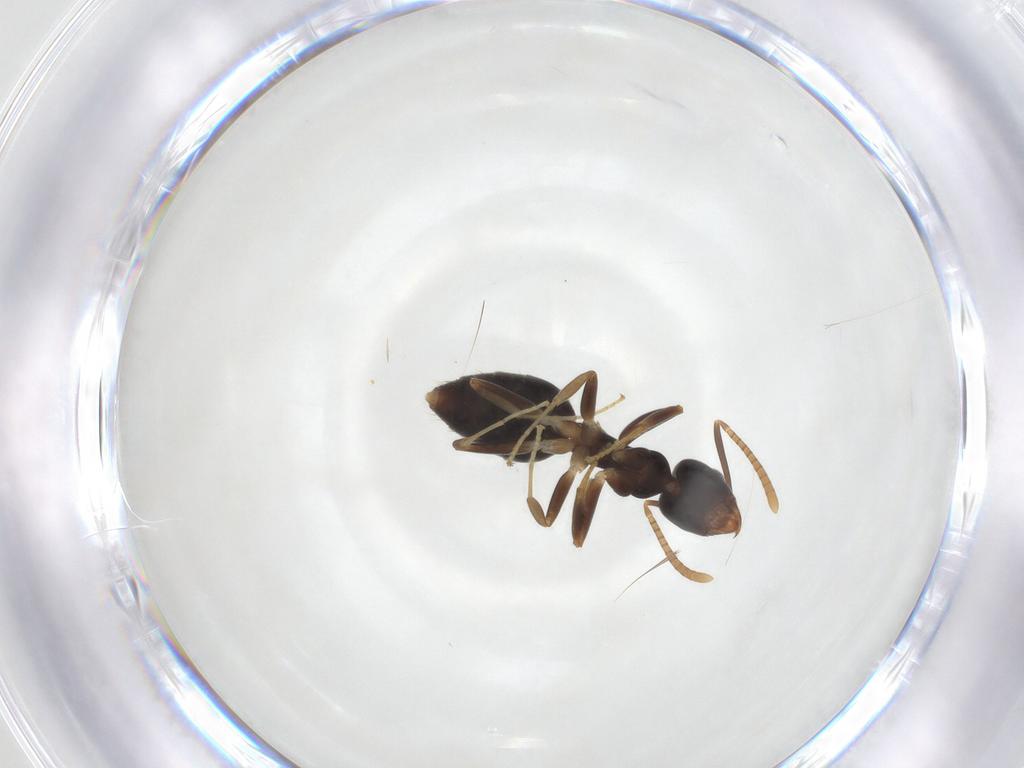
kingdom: Animalia
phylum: Arthropoda
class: Insecta
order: Hymenoptera
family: Formicidae
